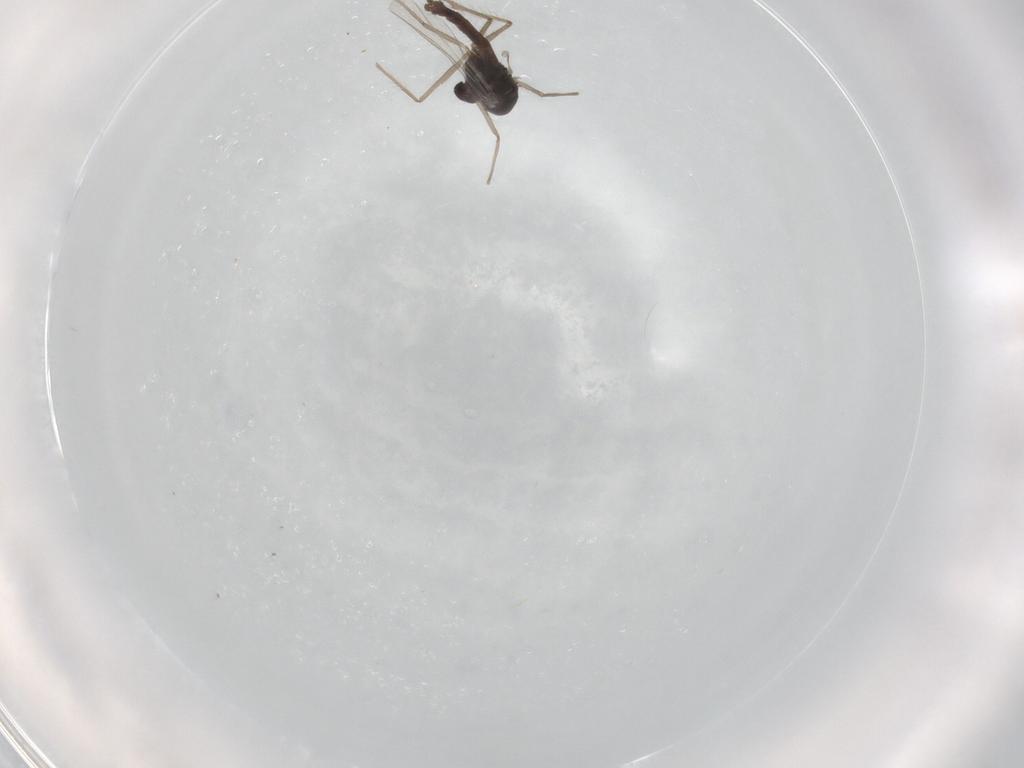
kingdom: Animalia
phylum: Arthropoda
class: Insecta
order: Diptera
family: Chironomidae
